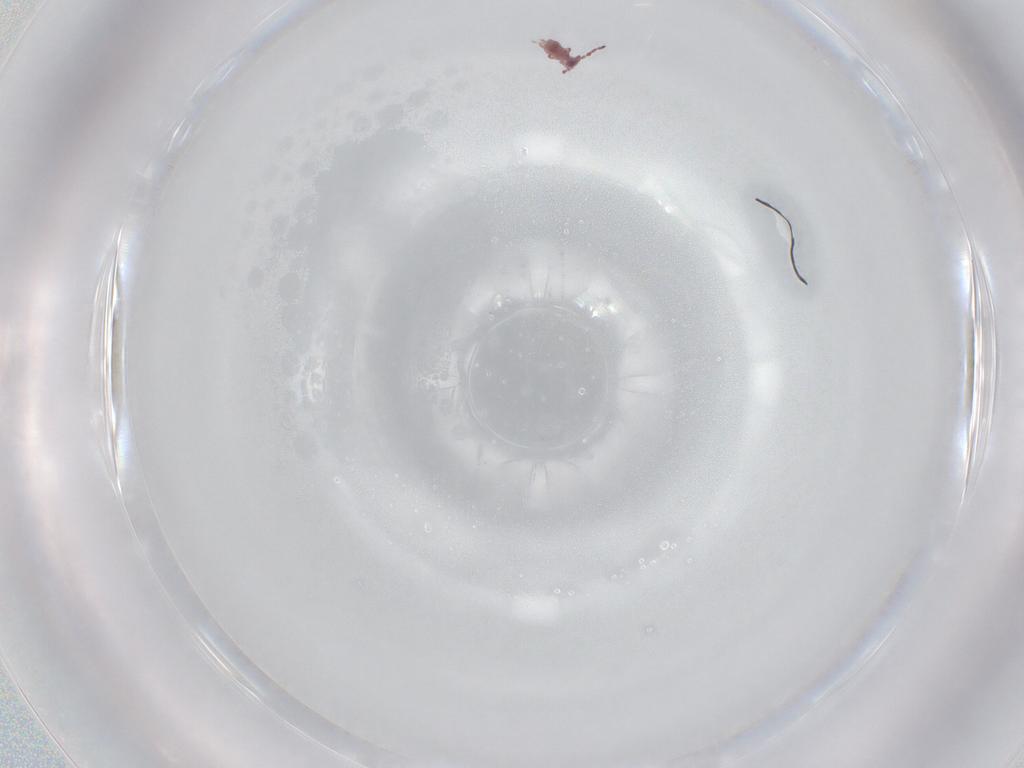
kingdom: Animalia
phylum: Arthropoda
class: Collembola
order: Symphypleona
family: Sminthurididae
